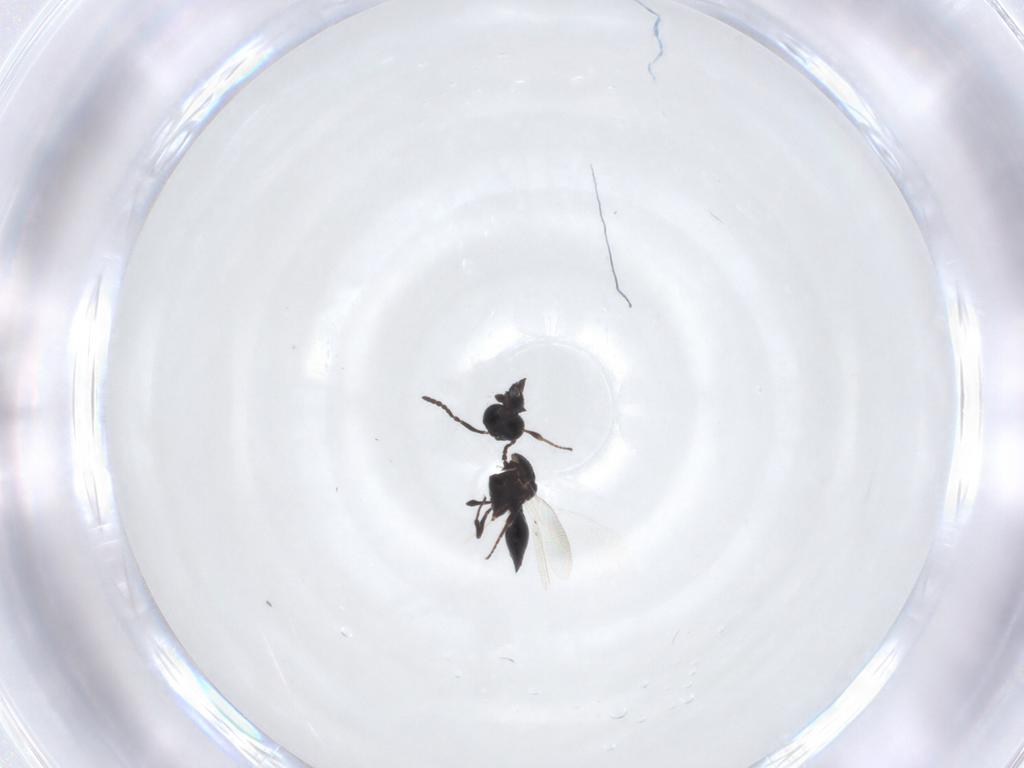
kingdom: Animalia
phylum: Arthropoda
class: Insecta
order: Hymenoptera
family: Platygastridae
